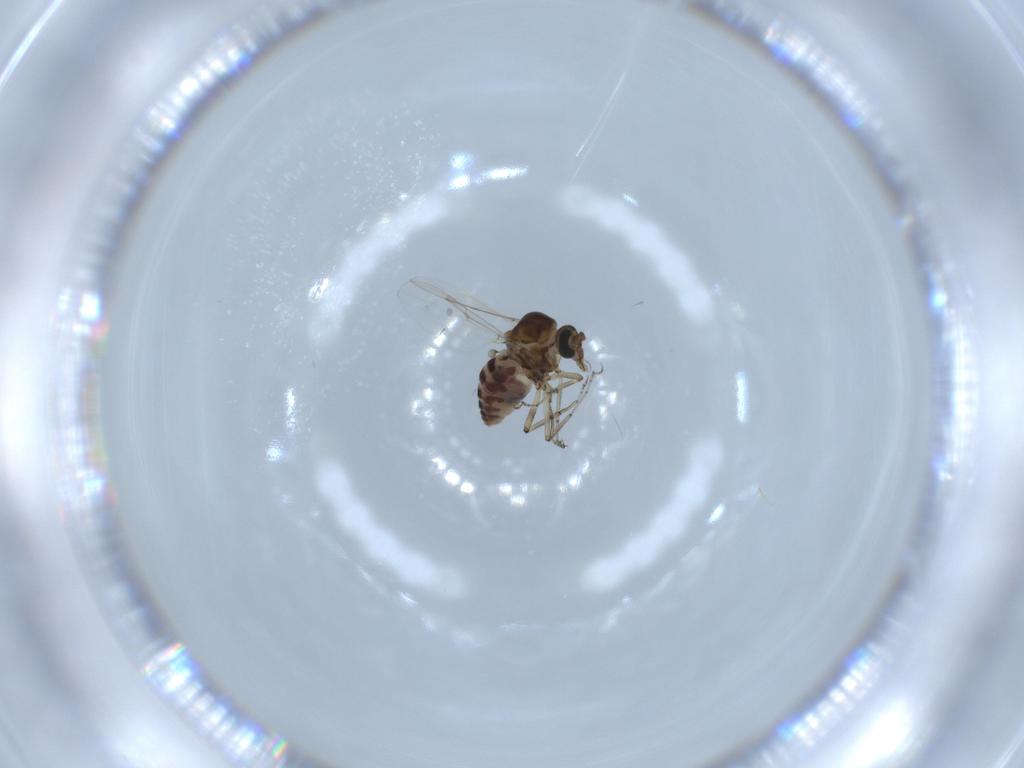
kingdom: Animalia
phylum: Arthropoda
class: Insecta
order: Diptera
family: Ceratopogonidae
